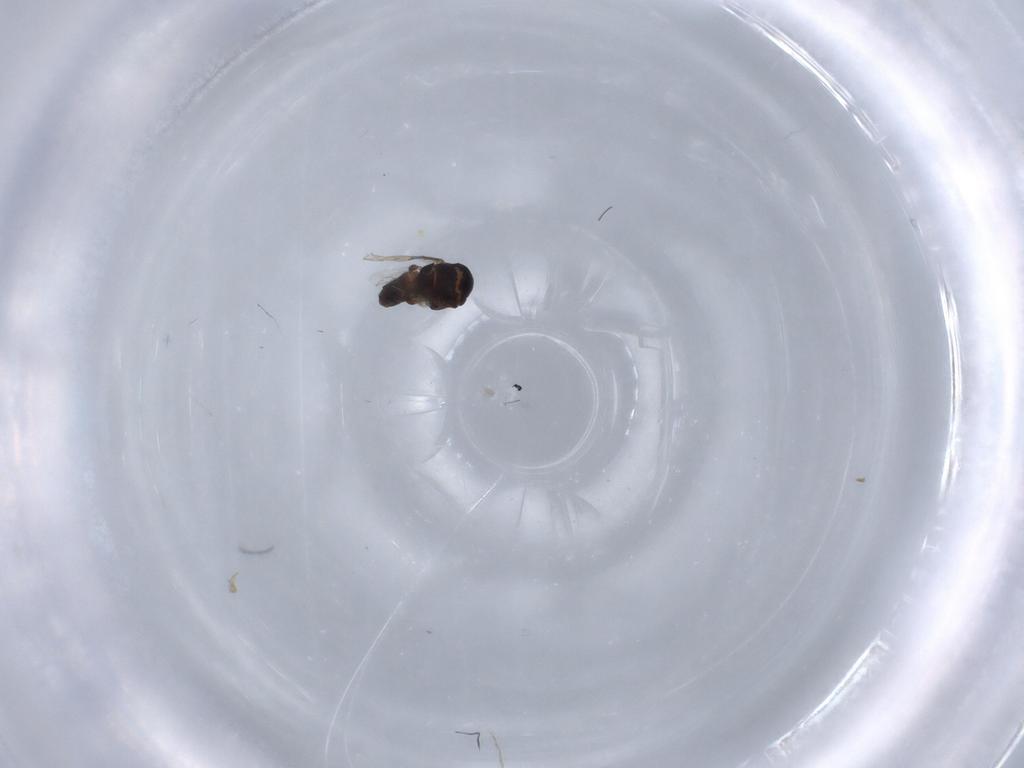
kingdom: Animalia
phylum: Arthropoda
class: Insecta
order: Diptera
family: Chloropidae
